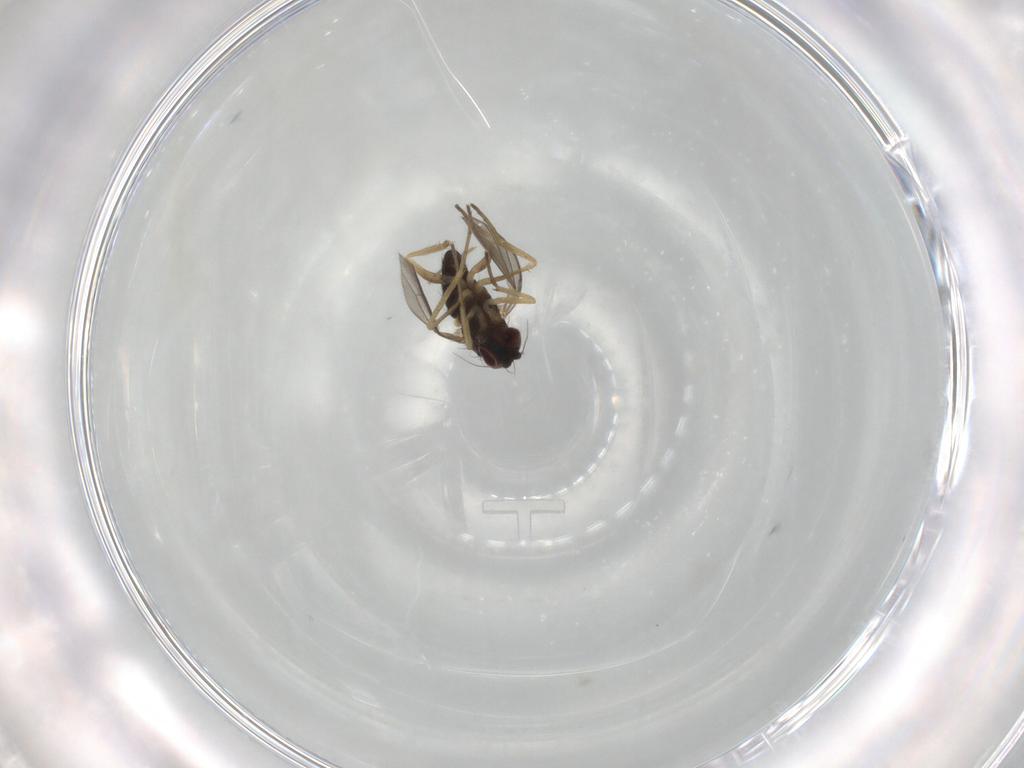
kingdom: Animalia
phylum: Arthropoda
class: Insecta
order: Diptera
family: Dolichopodidae
